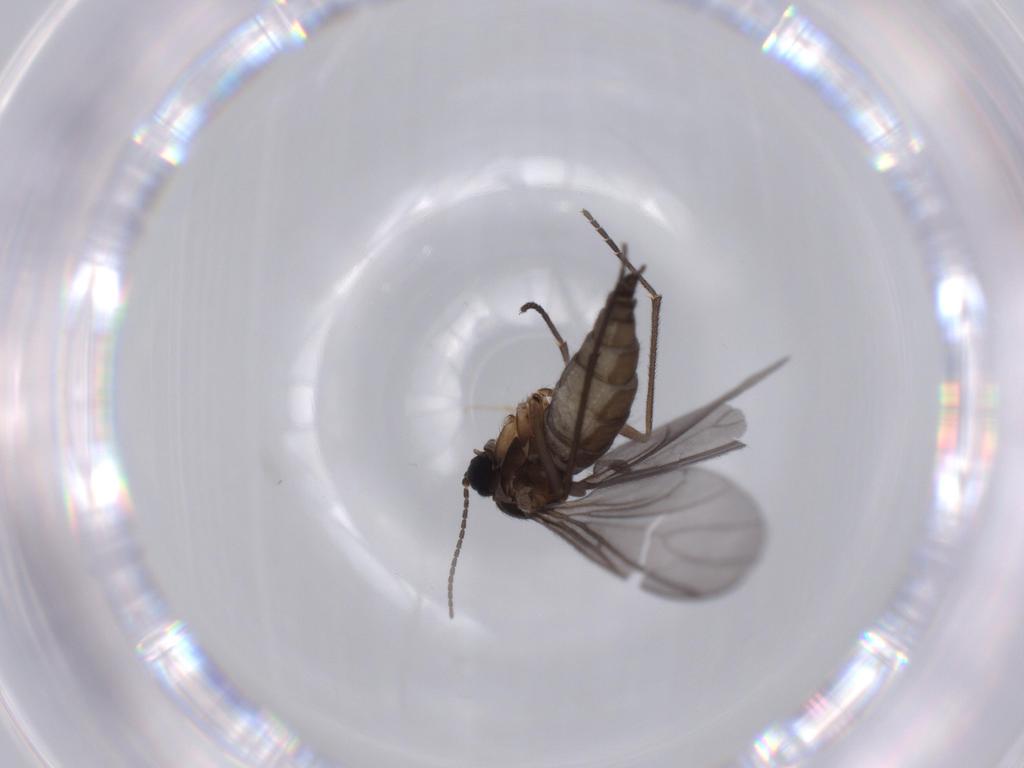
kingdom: Animalia
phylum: Arthropoda
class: Insecta
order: Diptera
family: Sciaridae
